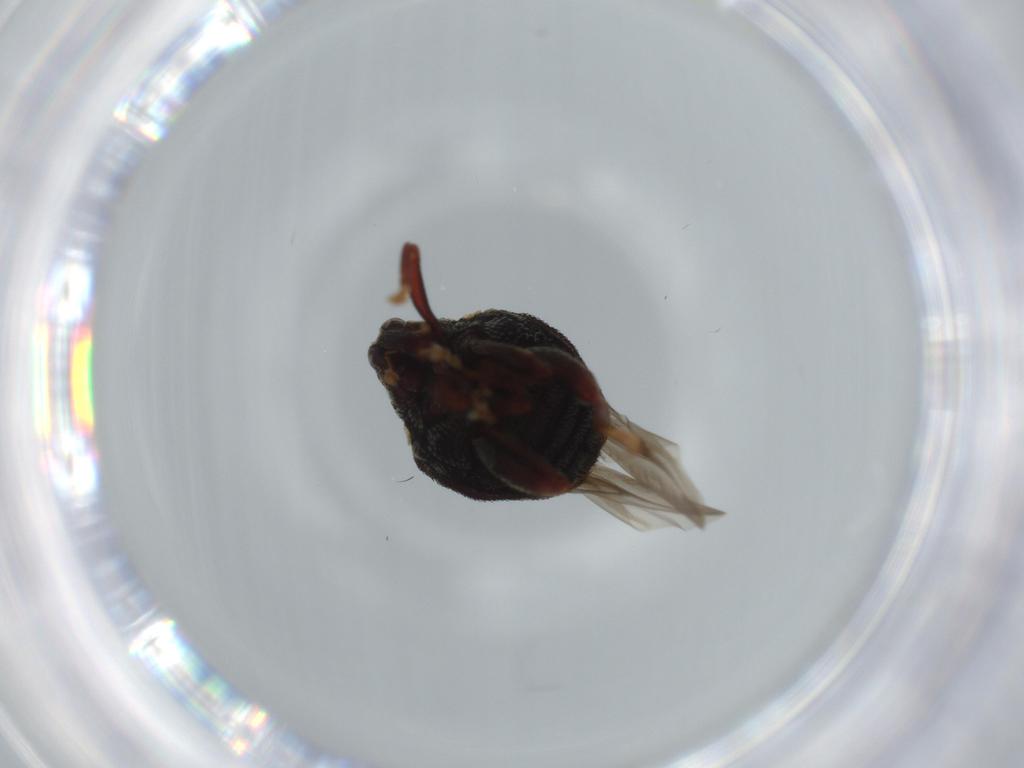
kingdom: Animalia
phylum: Arthropoda
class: Insecta
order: Coleoptera
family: Curculionidae
